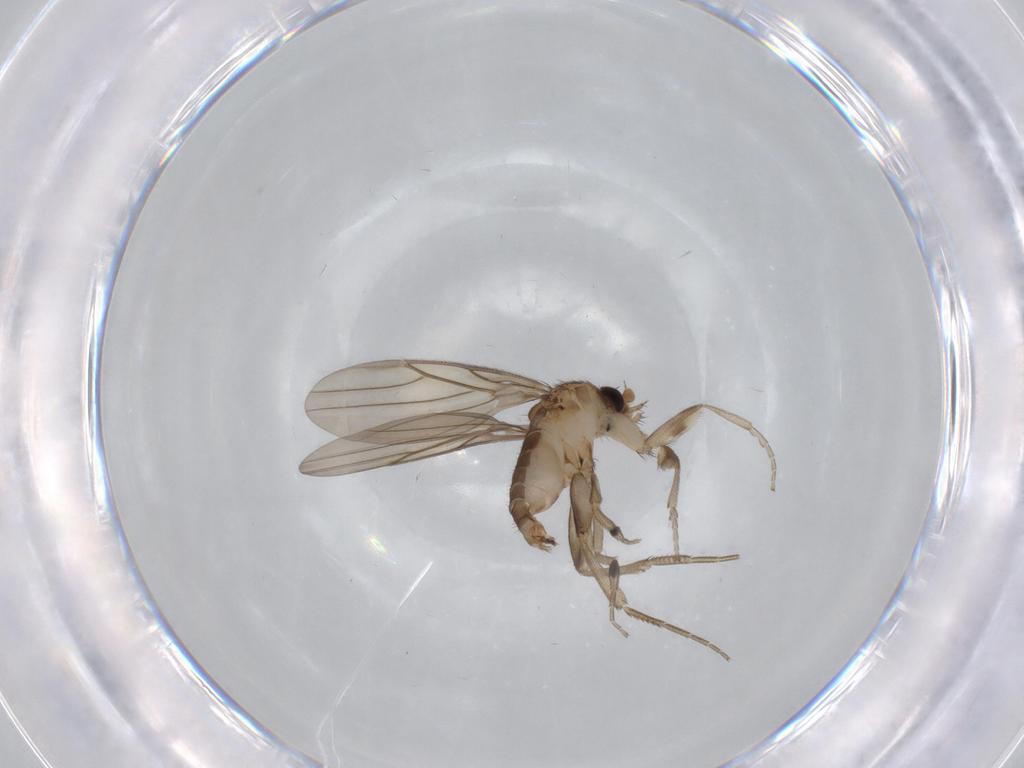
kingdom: Animalia
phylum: Arthropoda
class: Insecta
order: Diptera
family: Phoridae
